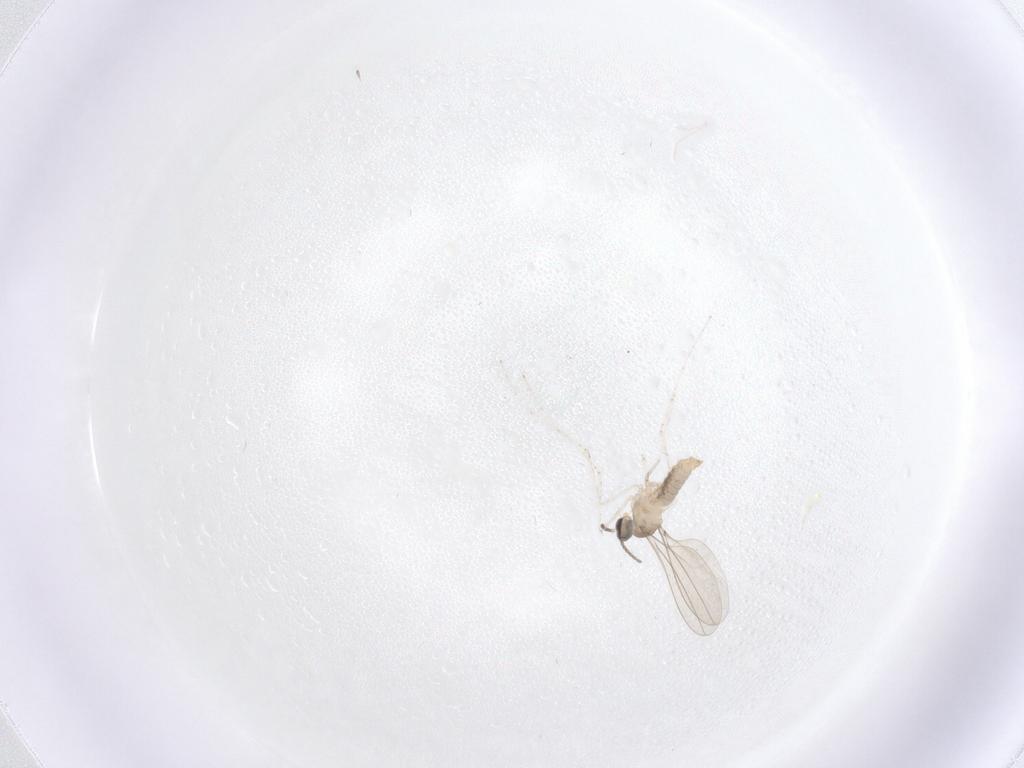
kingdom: Animalia
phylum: Arthropoda
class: Insecta
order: Diptera
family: Cecidomyiidae
